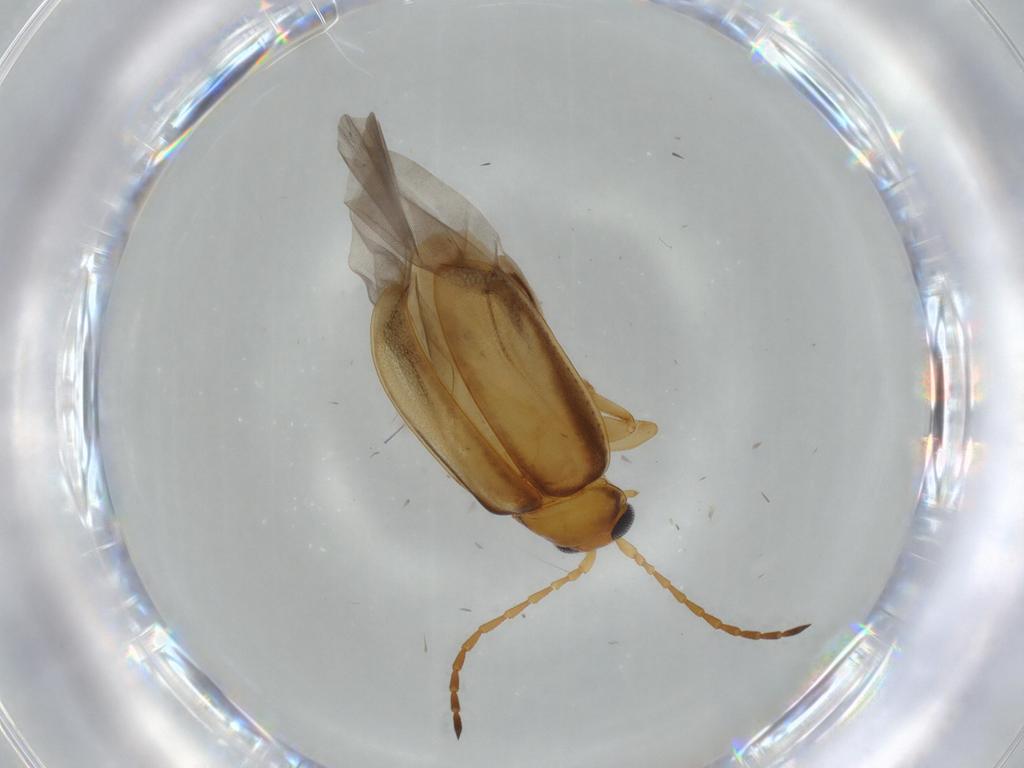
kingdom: Animalia
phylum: Arthropoda
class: Insecta
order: Coleoptera
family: Chrysomelidae
